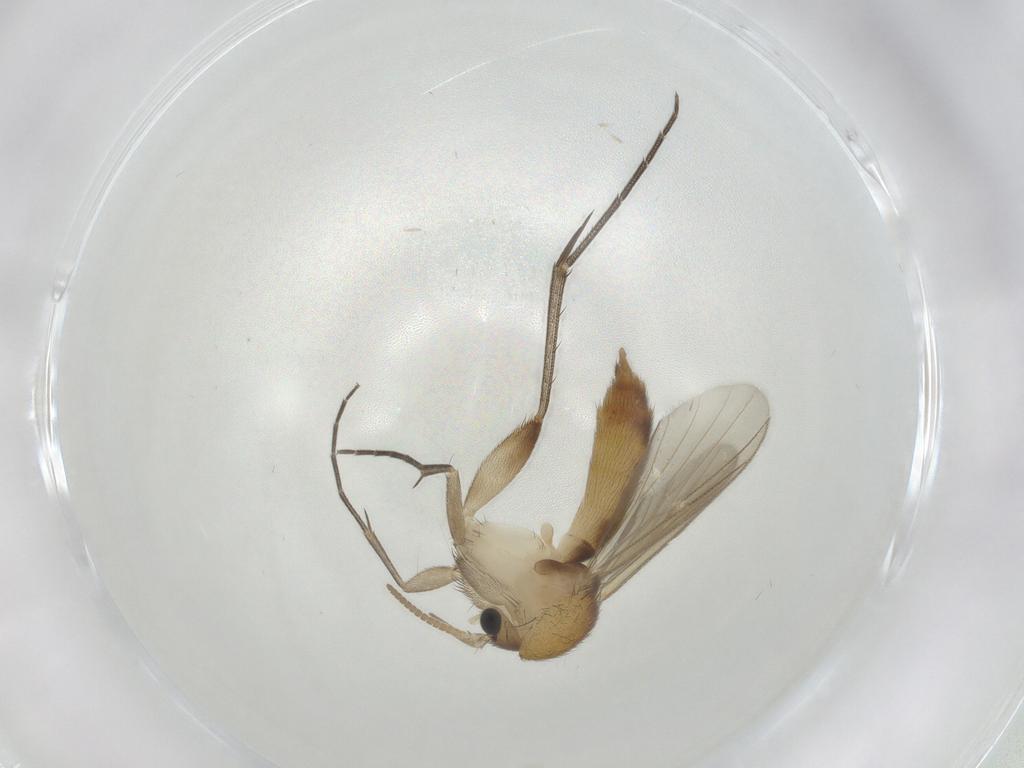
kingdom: Animalia
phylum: Arthropoda
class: Insecta
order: Diptera
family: Mycetophilidae
